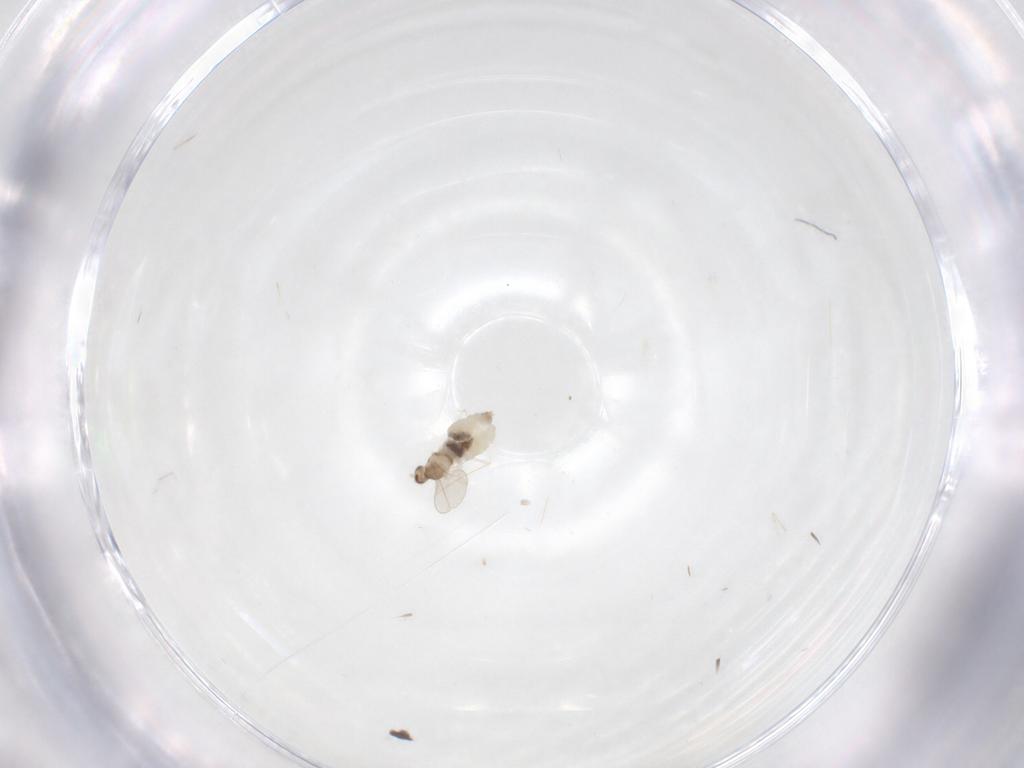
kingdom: Animalia
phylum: Arthropoda
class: Insecta
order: Diptera
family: Cecidomyiidae
